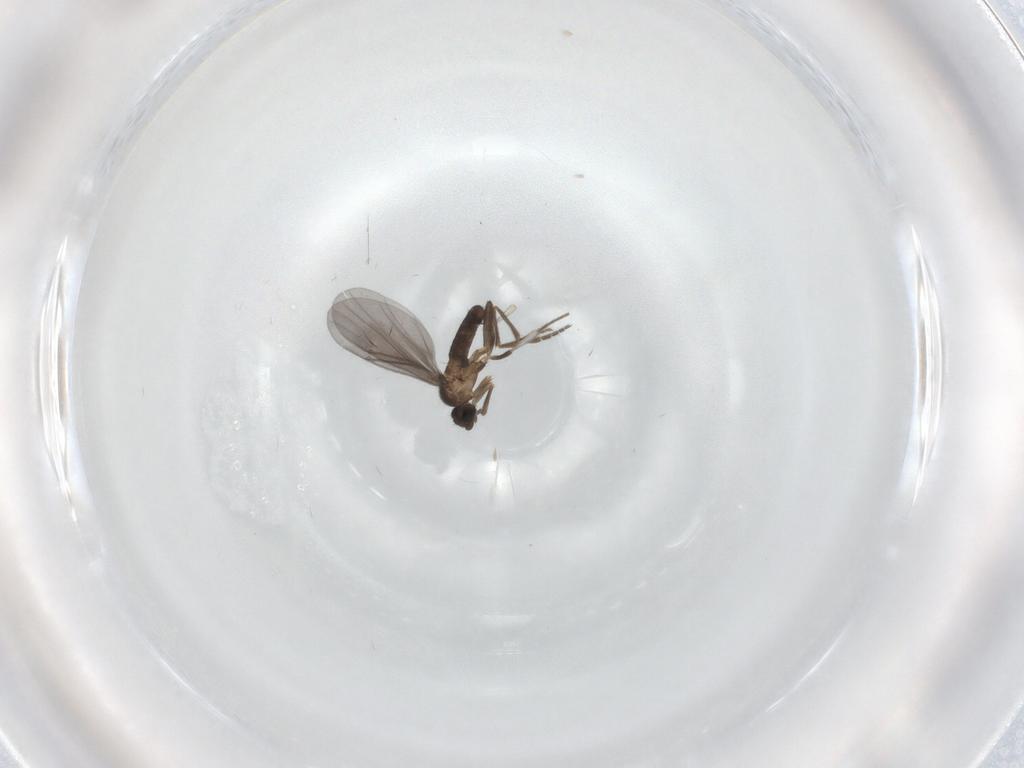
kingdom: Animalia
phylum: Arthropoda
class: Insecta
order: Diptera
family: Phoridae
